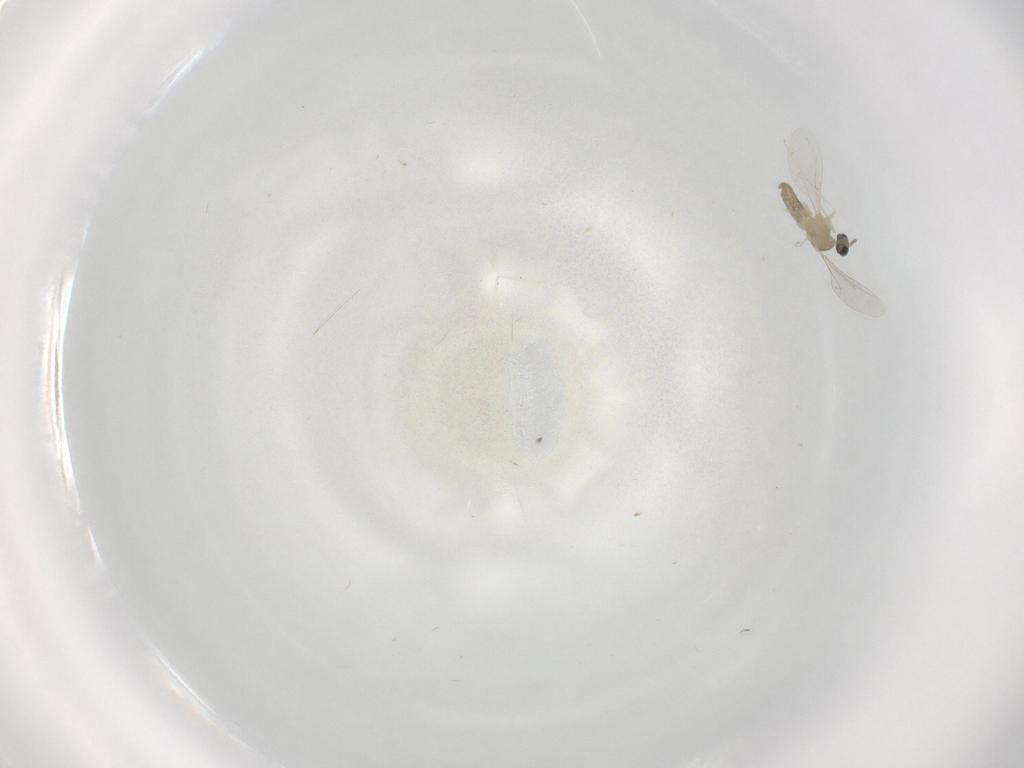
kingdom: Animalia
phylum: Arthropoda
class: Insecta
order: Diptera
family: Cecidomyiidae
